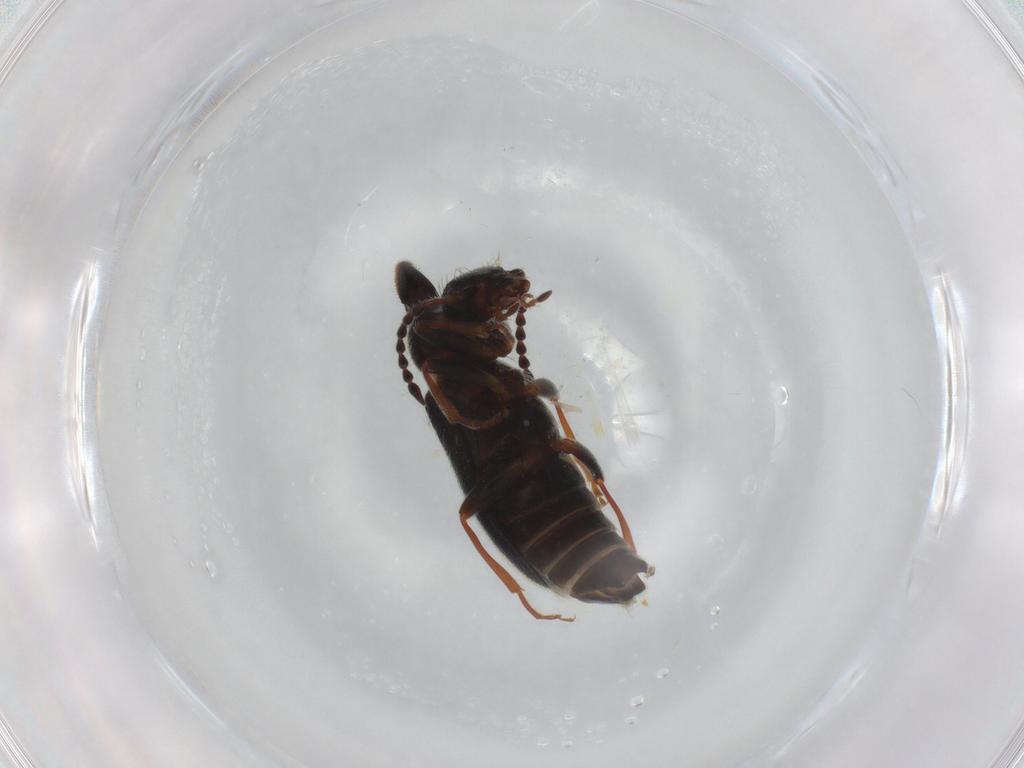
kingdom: Animalia
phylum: Arthropoda
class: Insecta
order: Coleoptera
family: Anthicidae
